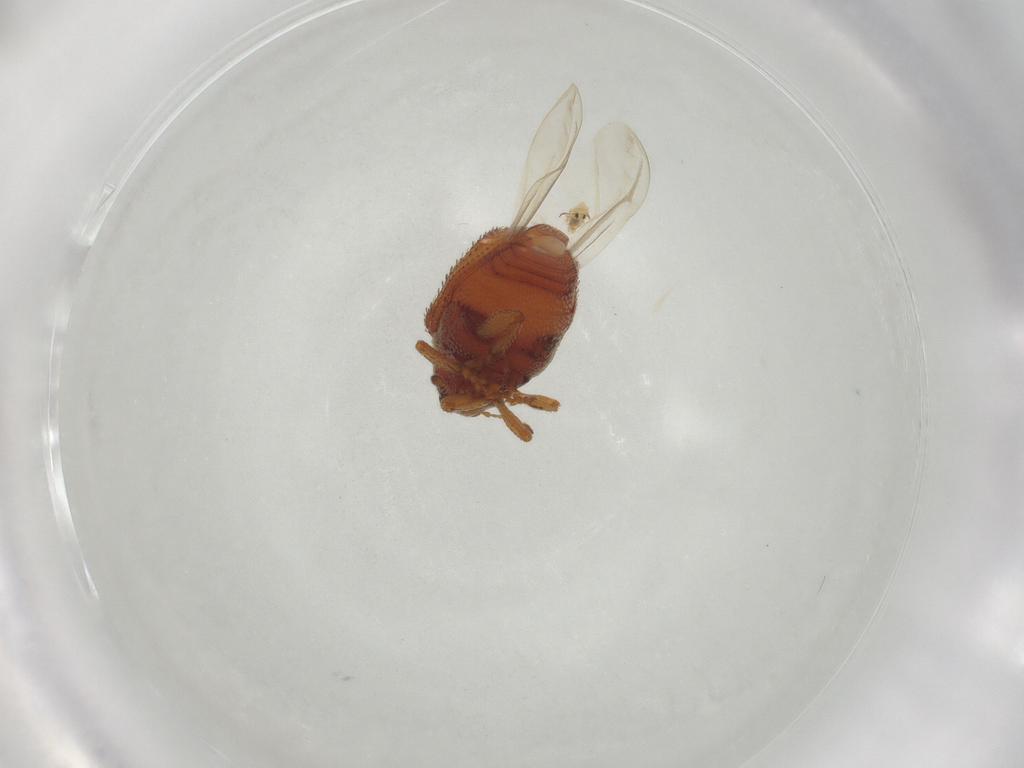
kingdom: Animalia
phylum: Arthropoda
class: Insecta
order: Coleoptera
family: Curculionidae
